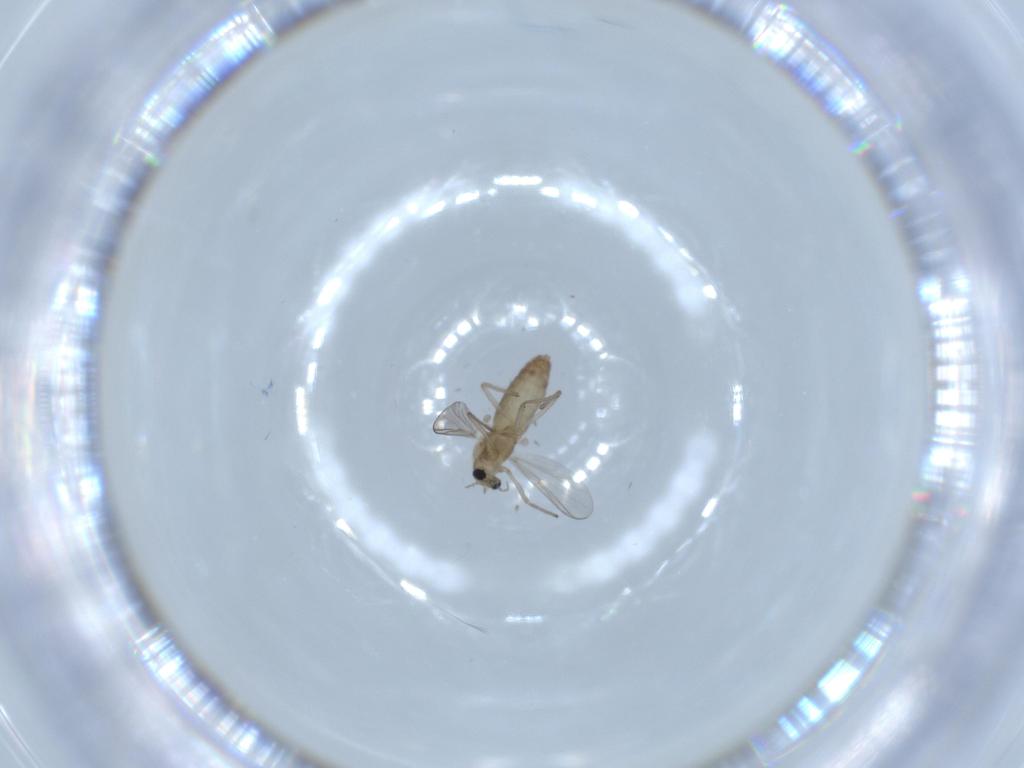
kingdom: Animalia
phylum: Arthropoda
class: Insecta
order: Diptera
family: Chironomidae
